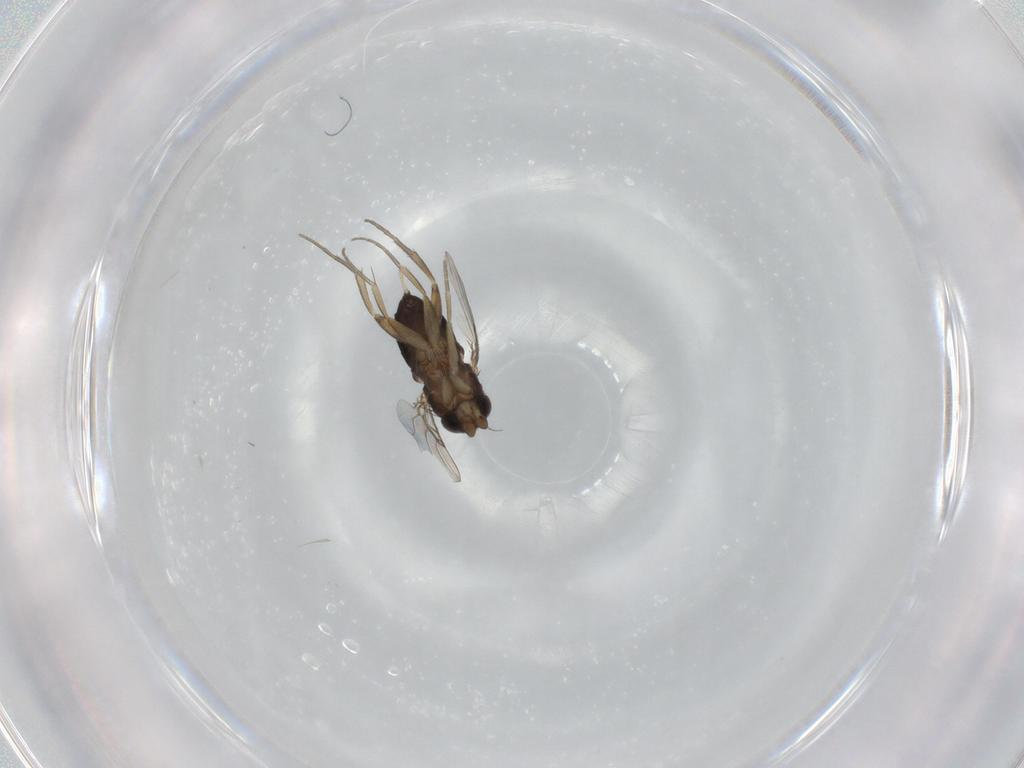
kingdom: Animalia
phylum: Arthropoda
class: Insecta
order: Diptera
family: Phoridae
